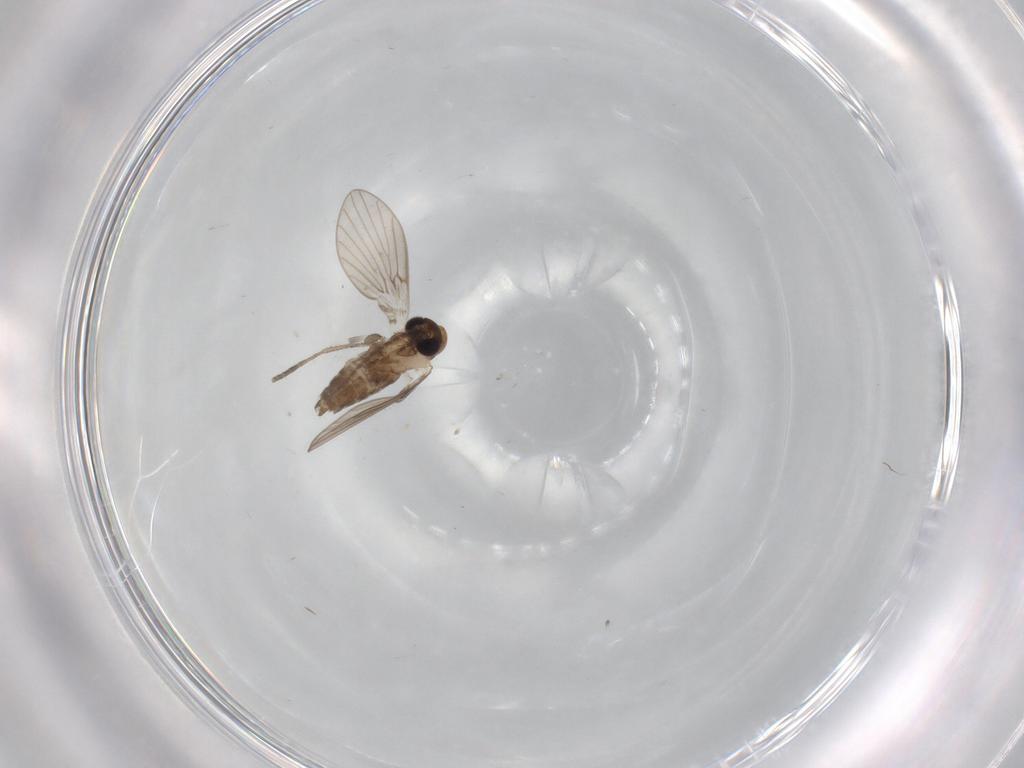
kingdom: Animalia
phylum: Arthropoda
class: Insecta
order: Diptera
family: Psychodidae
